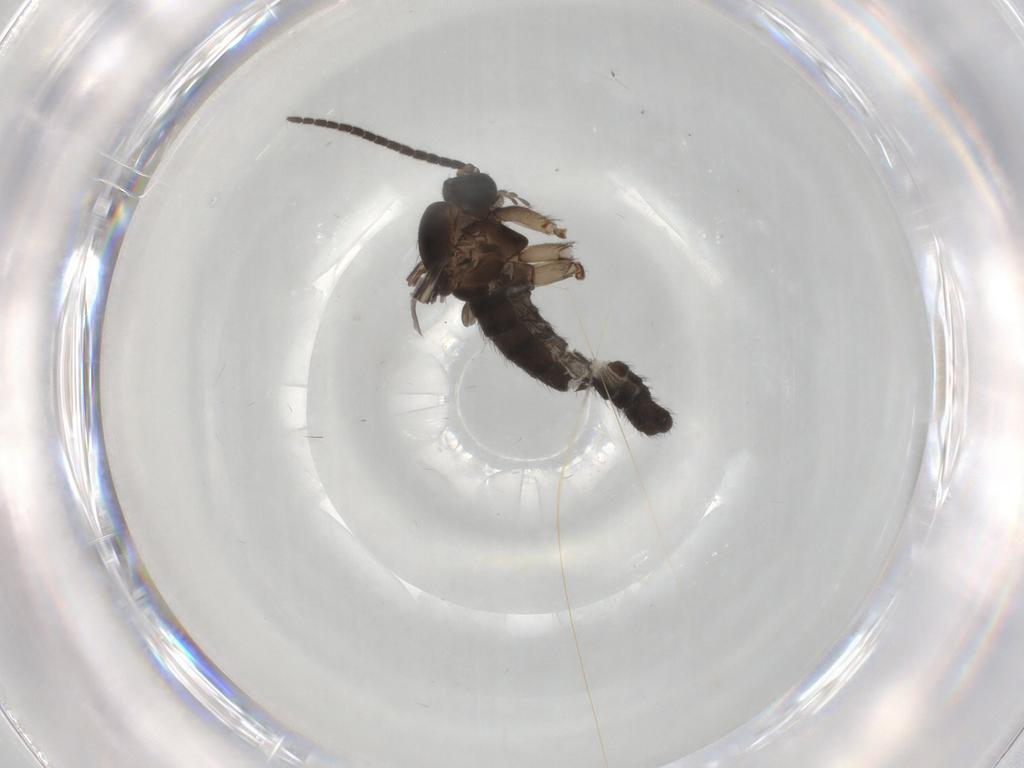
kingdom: Animalia
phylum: Arthropoda
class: Insecta
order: Diptera
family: Sciaridae
